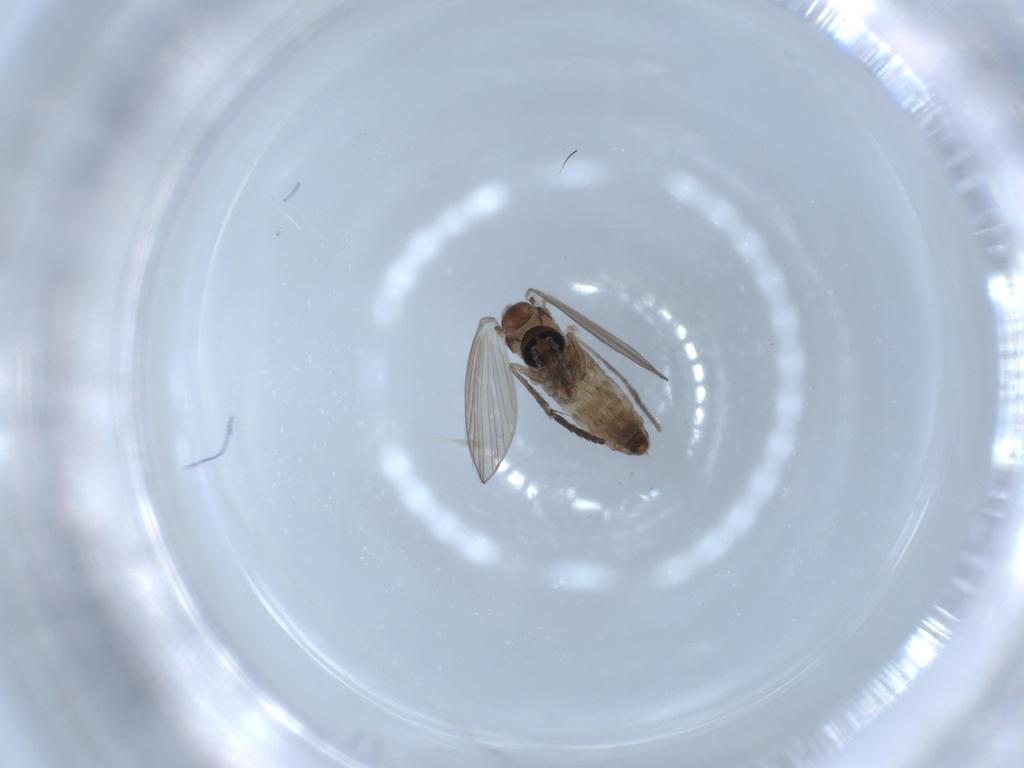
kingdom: Animalia
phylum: Arthropoda
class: Insecta
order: Diptera
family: Psychodidae
